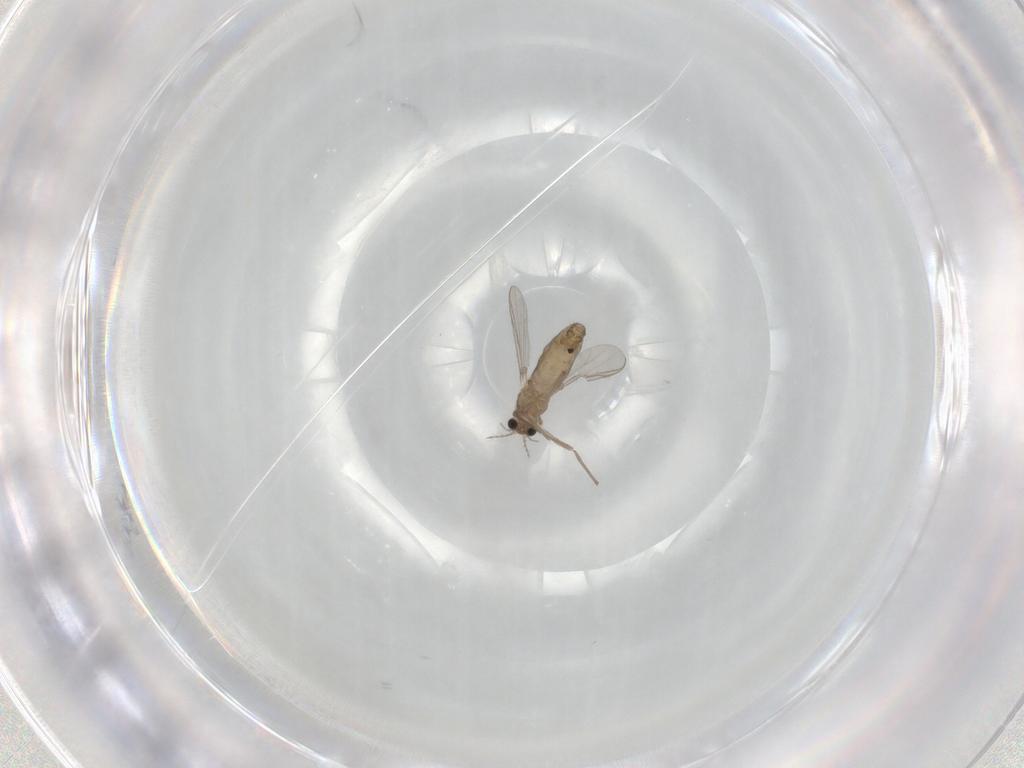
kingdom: Animalia
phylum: Arthropoda
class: Insecta
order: Diptera
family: Chironomidae
